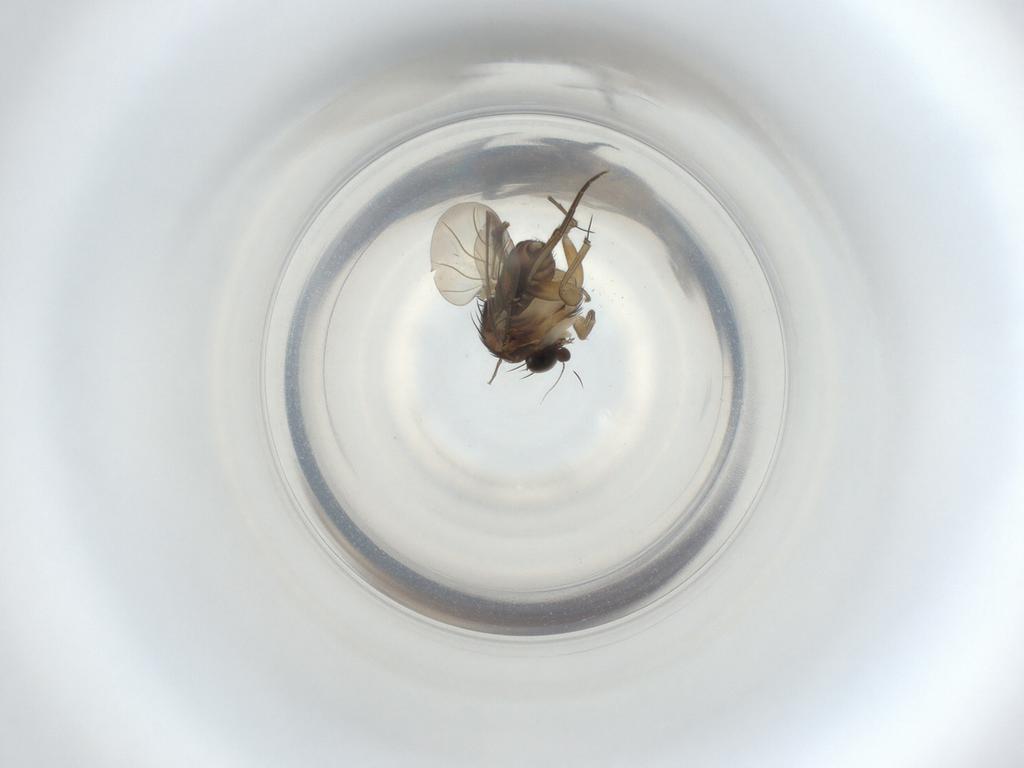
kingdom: Animalia
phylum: Arthropoda
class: Insecta
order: Diptera
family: Phoridae
